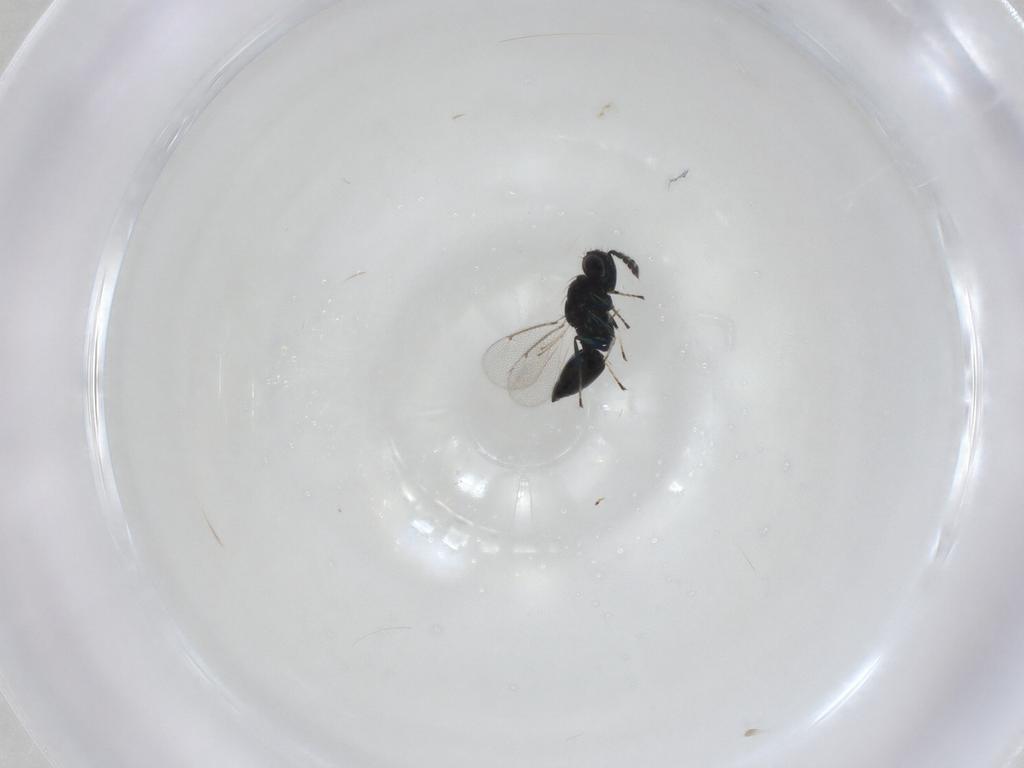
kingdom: Animalia
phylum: Arthropoda
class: Insecta
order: Hymenoptera
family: Eulophidae
